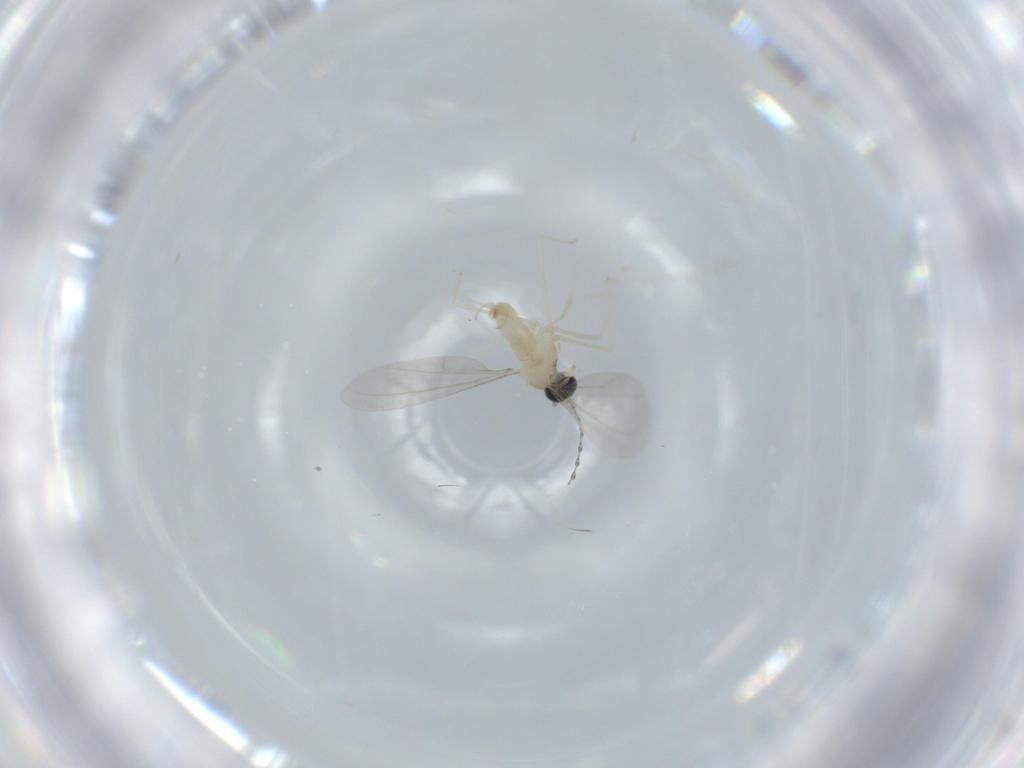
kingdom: Animalia
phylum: Arthropoda
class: Insecta
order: Diptera
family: Cecidomyiidae
